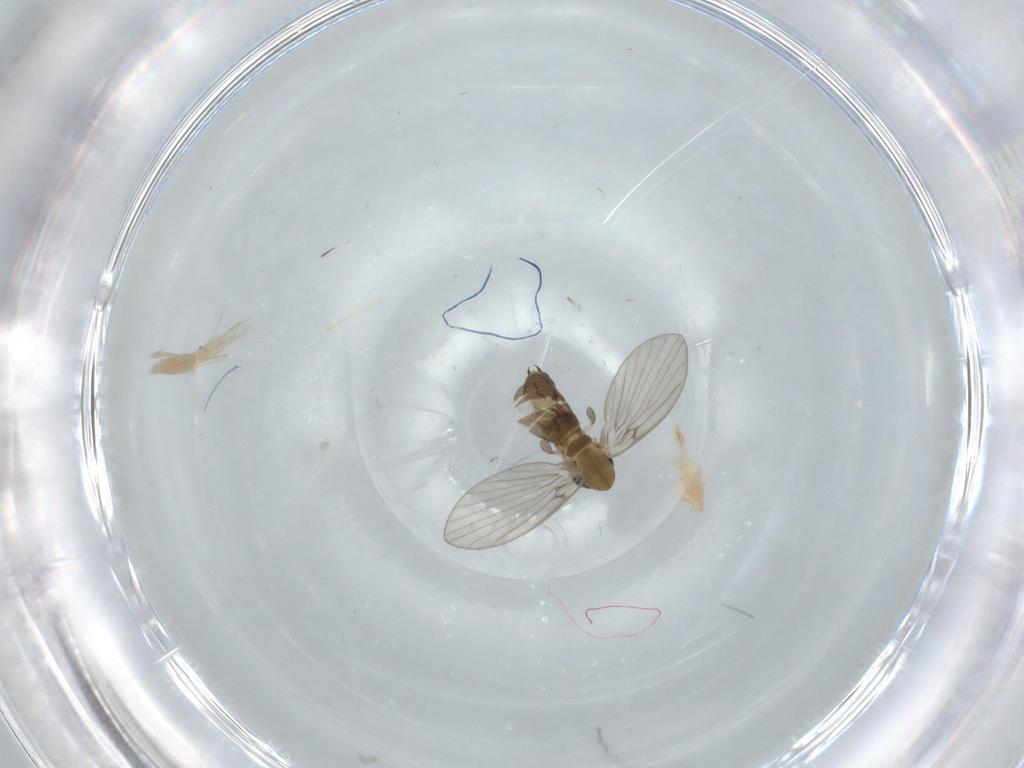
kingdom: Animalia
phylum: Arthropoda
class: Insecta
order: Diptera
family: Psychodidae
